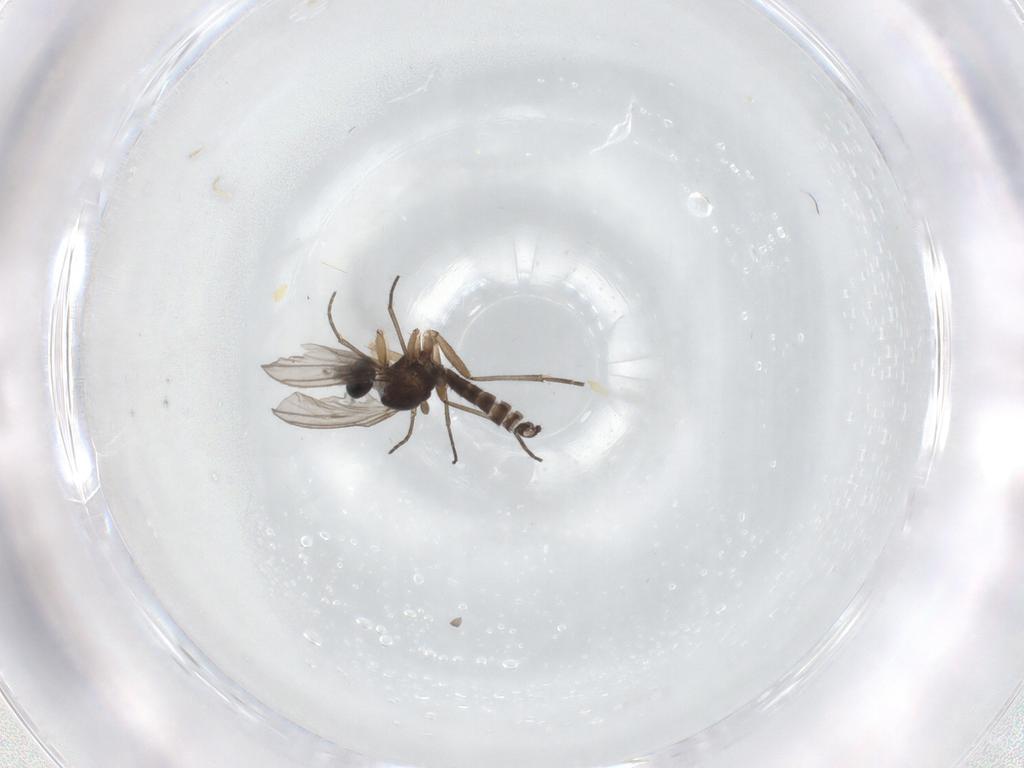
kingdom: Animalia
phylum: Arthropoda
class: Insecta
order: Diptera
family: Sciaridae
